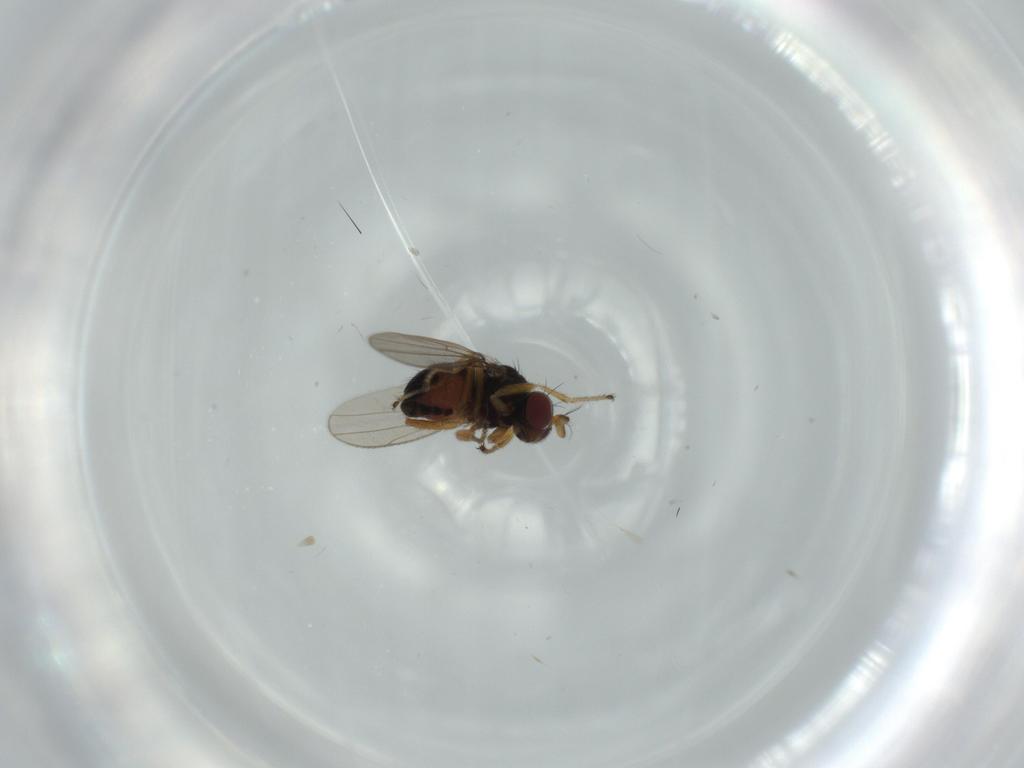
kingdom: Animalia
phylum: Arthropoda
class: Insecta
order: Diptera
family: Ephydridae
